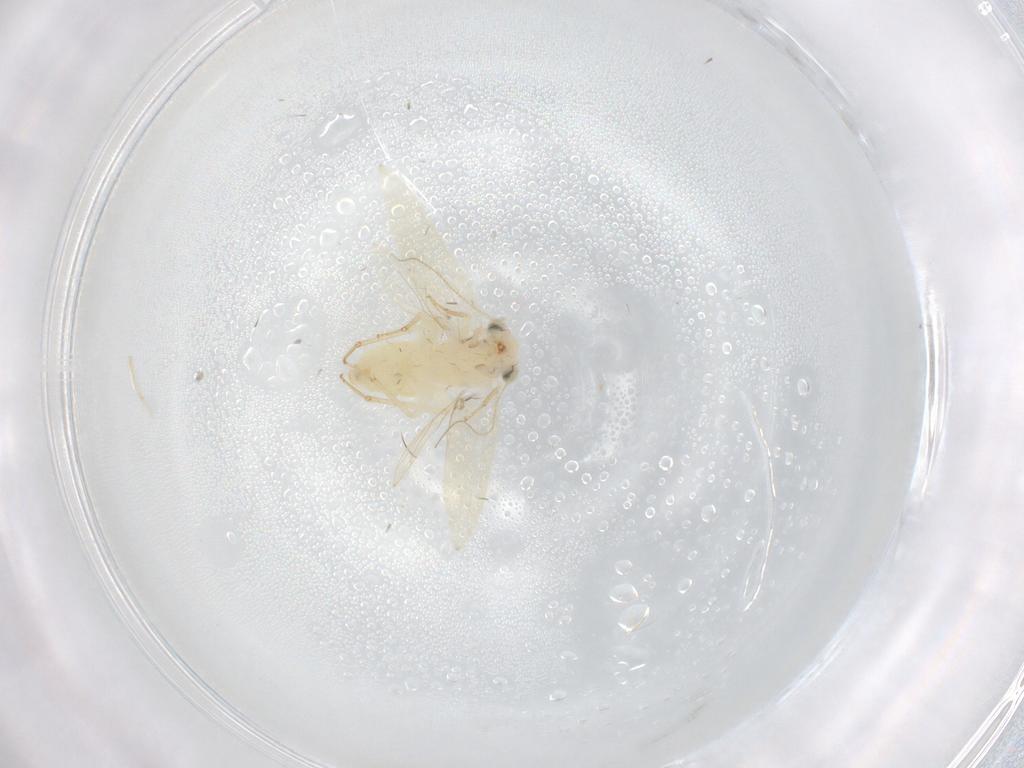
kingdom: Animalia
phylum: Arthropoda
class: Insecta
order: Psocodea
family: Lepidopsocidae
